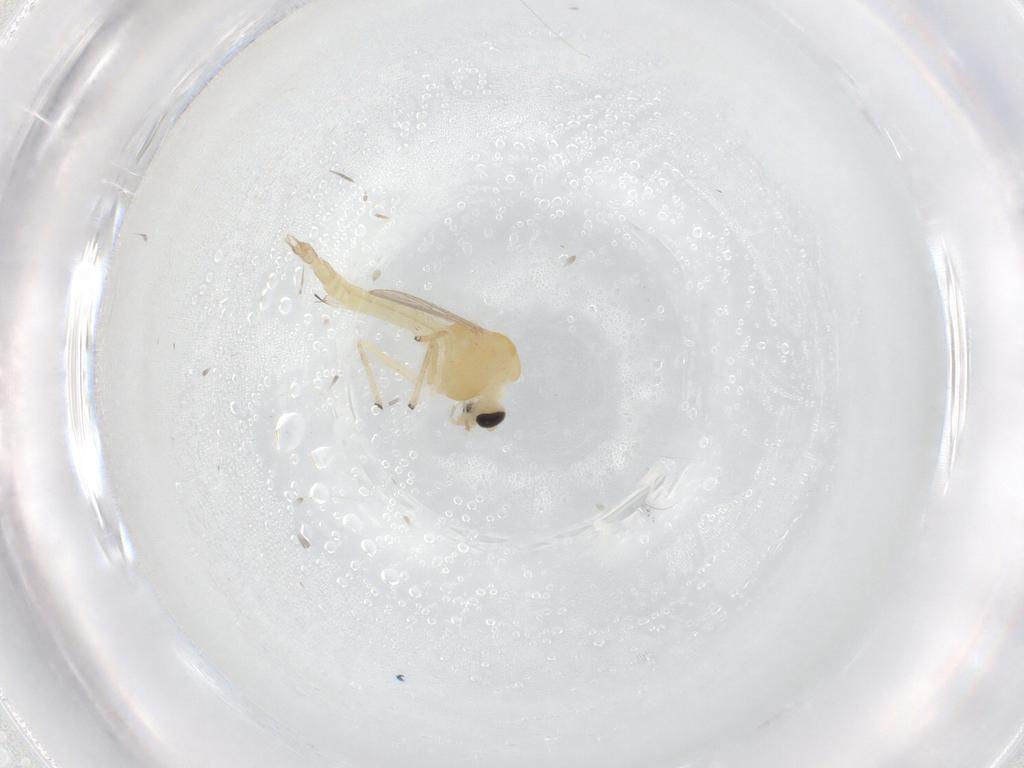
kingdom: Animalia
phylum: Arthropoda
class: Insecta
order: Diptera
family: Chironomidae
